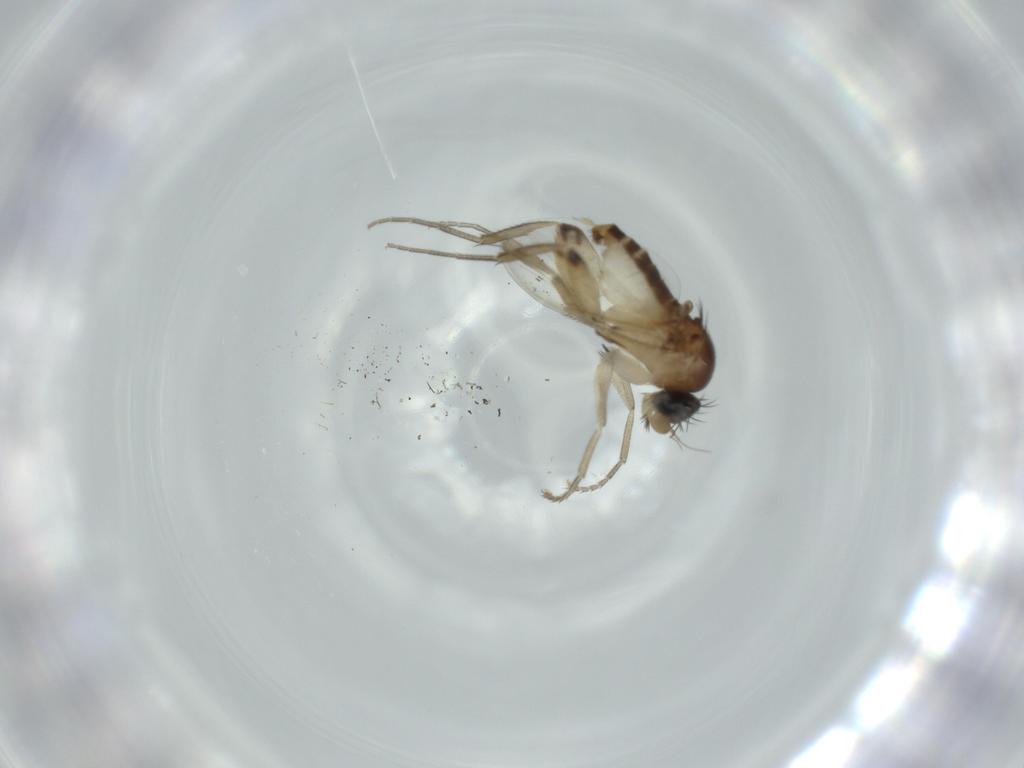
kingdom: Animalia
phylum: Arthropoda
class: Insecta
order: Diptera
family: Phoridae
